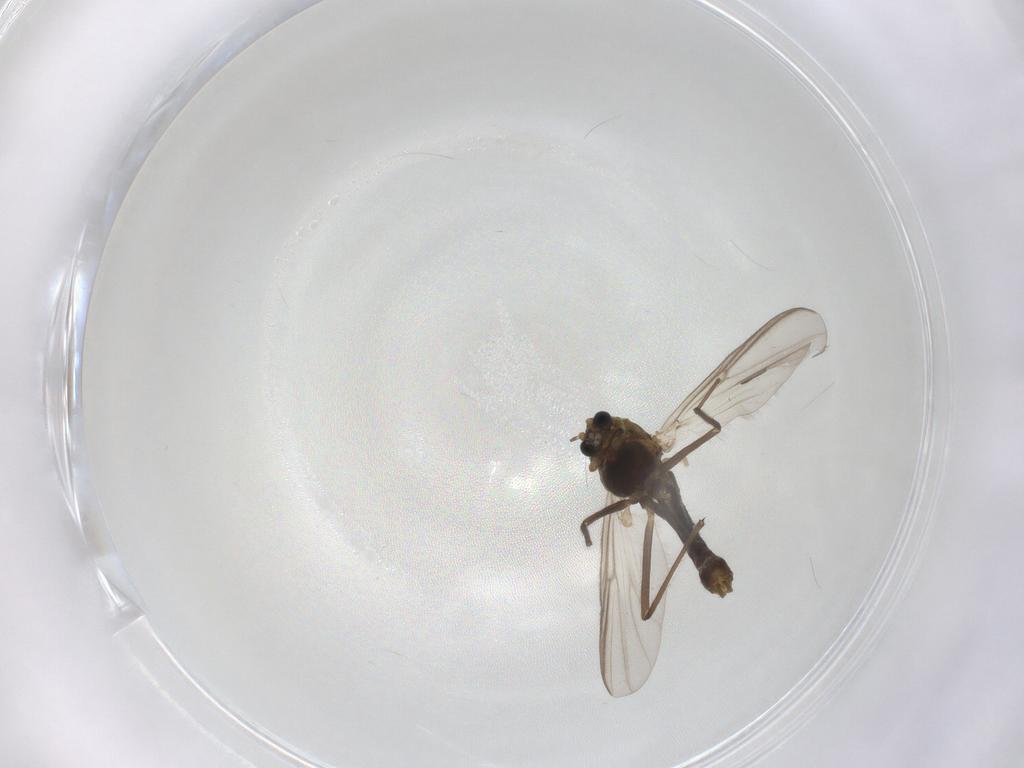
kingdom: Animalia
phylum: Arthropoda
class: Insecta
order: Diptera
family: Chironomidae
